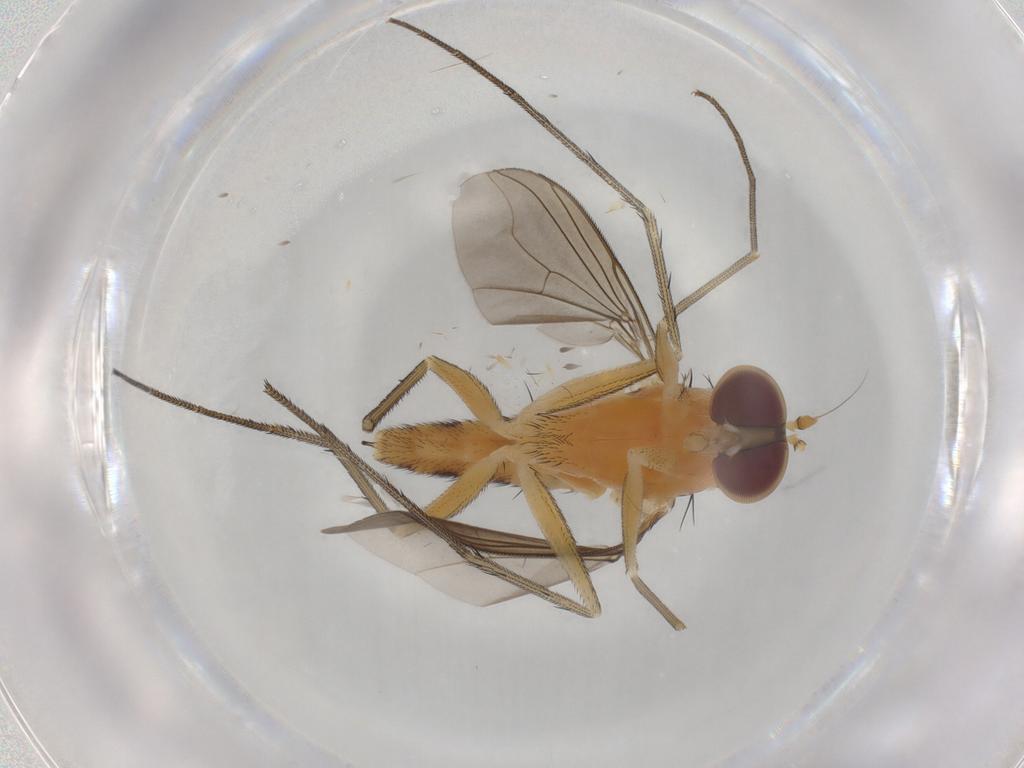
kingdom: Animalia
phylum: Arthropoda
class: Insecta
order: Diptera
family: Dolichopodidae
